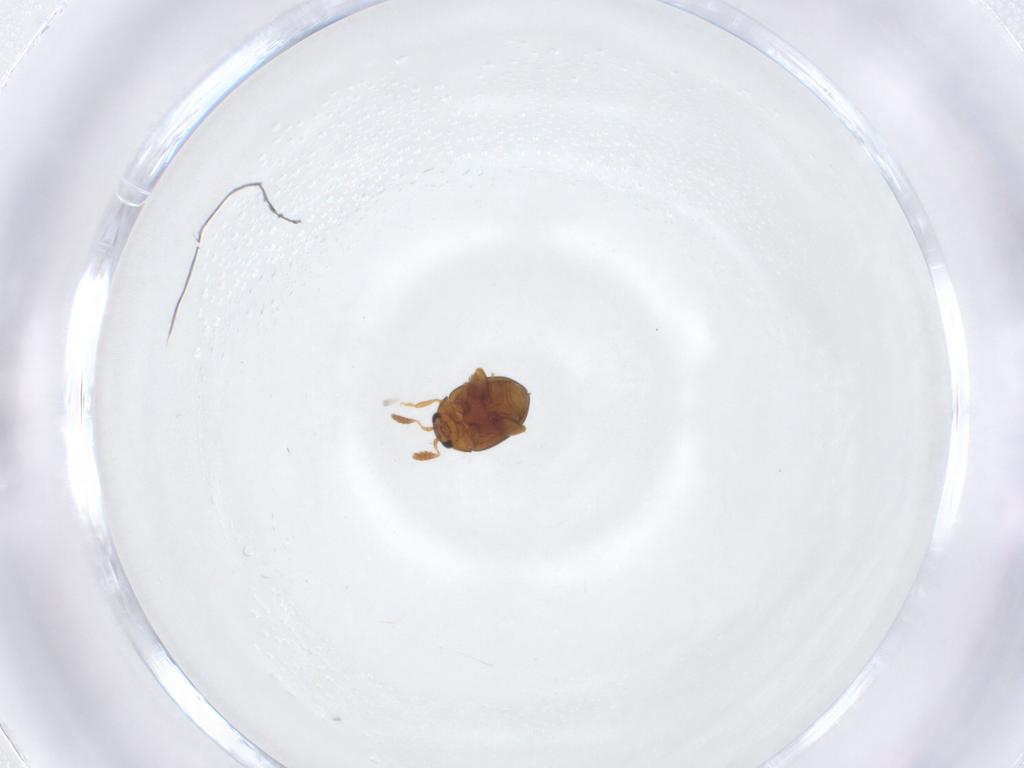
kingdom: Animalia
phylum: Arthropoda
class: Insecta
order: Coleoptera
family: Chrysomelidae
